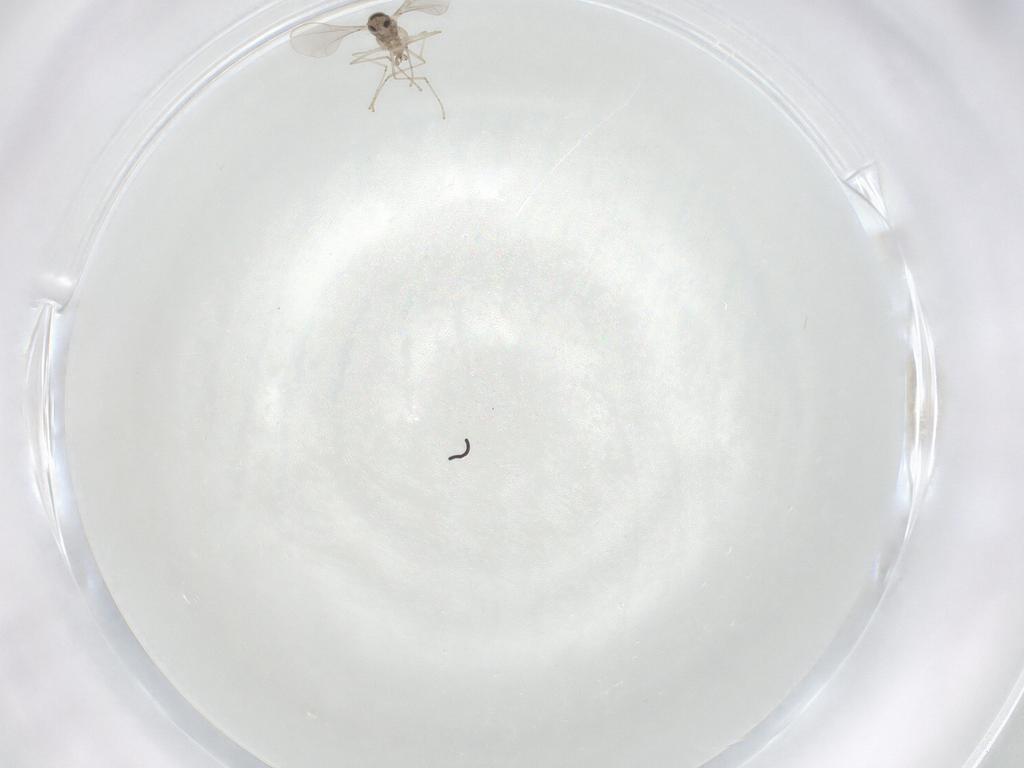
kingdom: Animalia
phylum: Arthropoda
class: Insecta
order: Diptera
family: Cecidomyiidae
